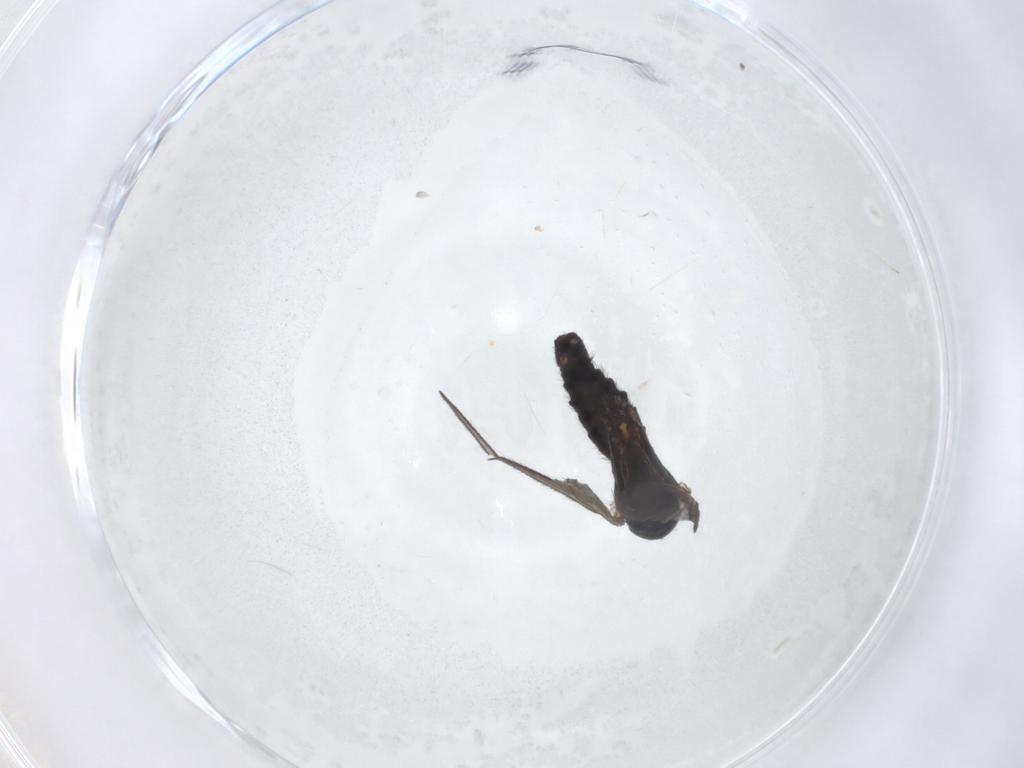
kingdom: Animalia
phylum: Arthropoda
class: Insecta
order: Diptera
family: Sciaridae
